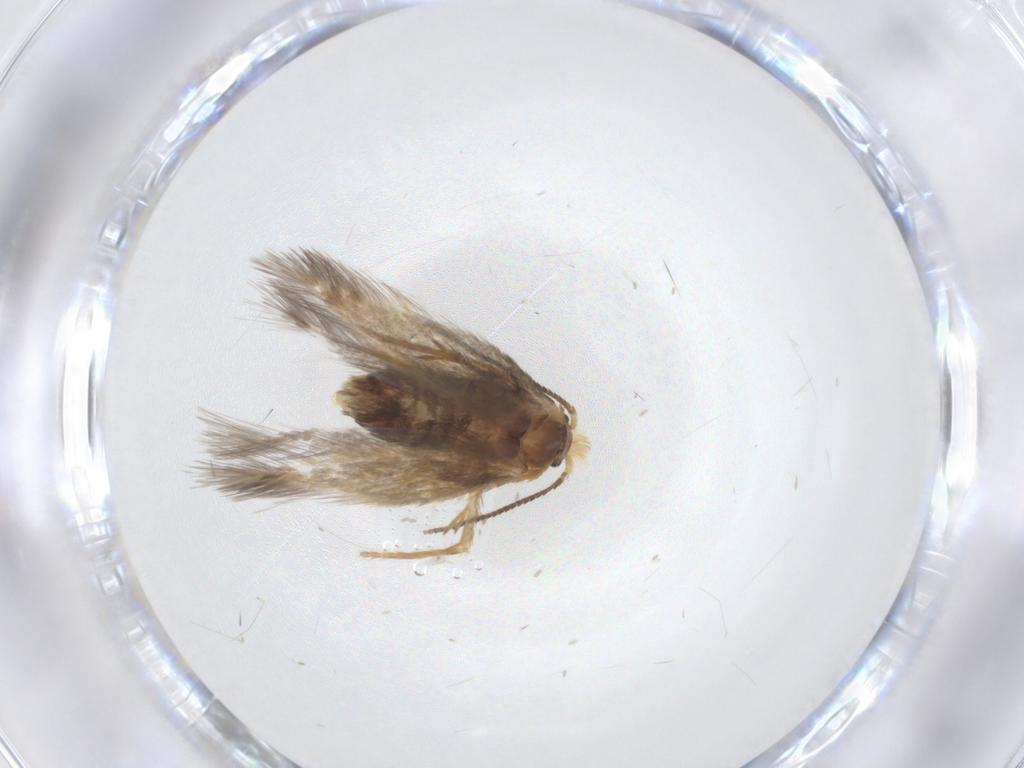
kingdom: Animalia
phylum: Arthropoda
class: Insecta
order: Lepidoptera
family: Nepticulidae
